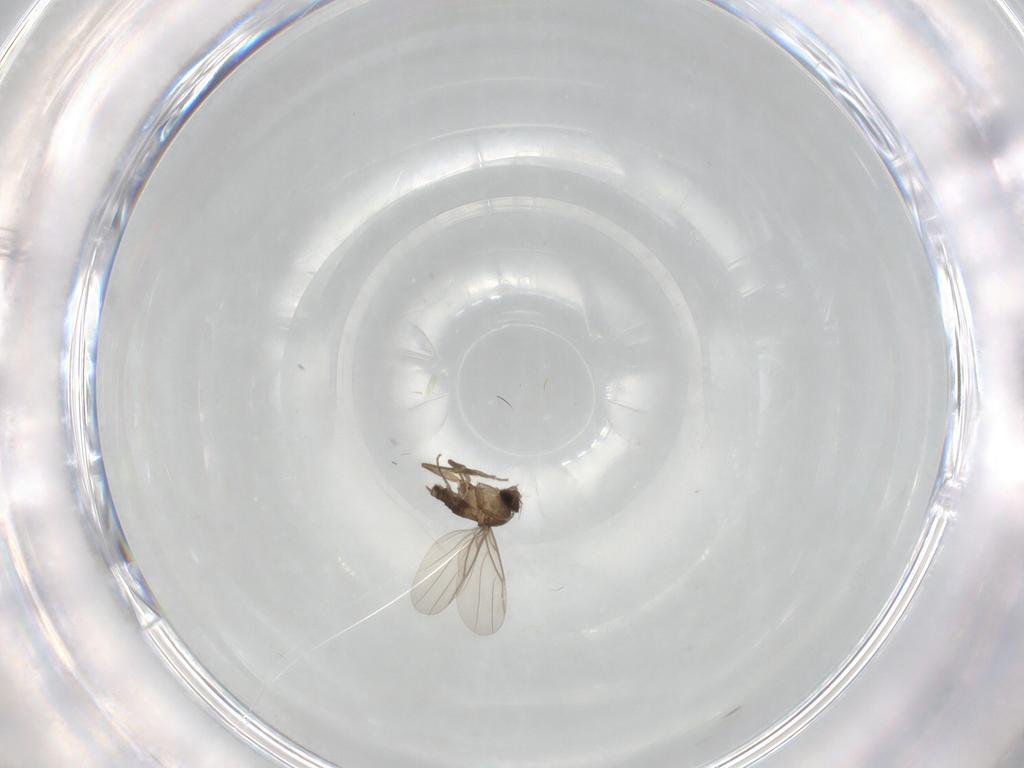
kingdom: Animalia
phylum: Arthropoda
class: Insecta
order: Diptera
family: Phoridae
